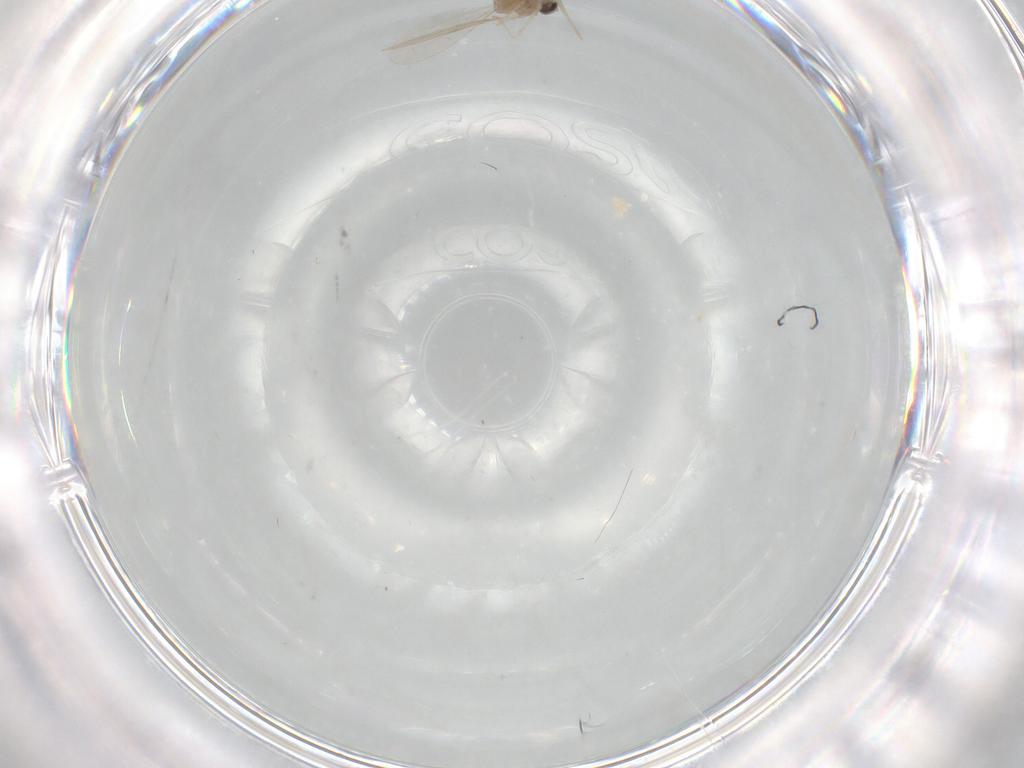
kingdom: Animalia
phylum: Arthropoda
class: Insecta
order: Diptera
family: Cecidomyiidae
